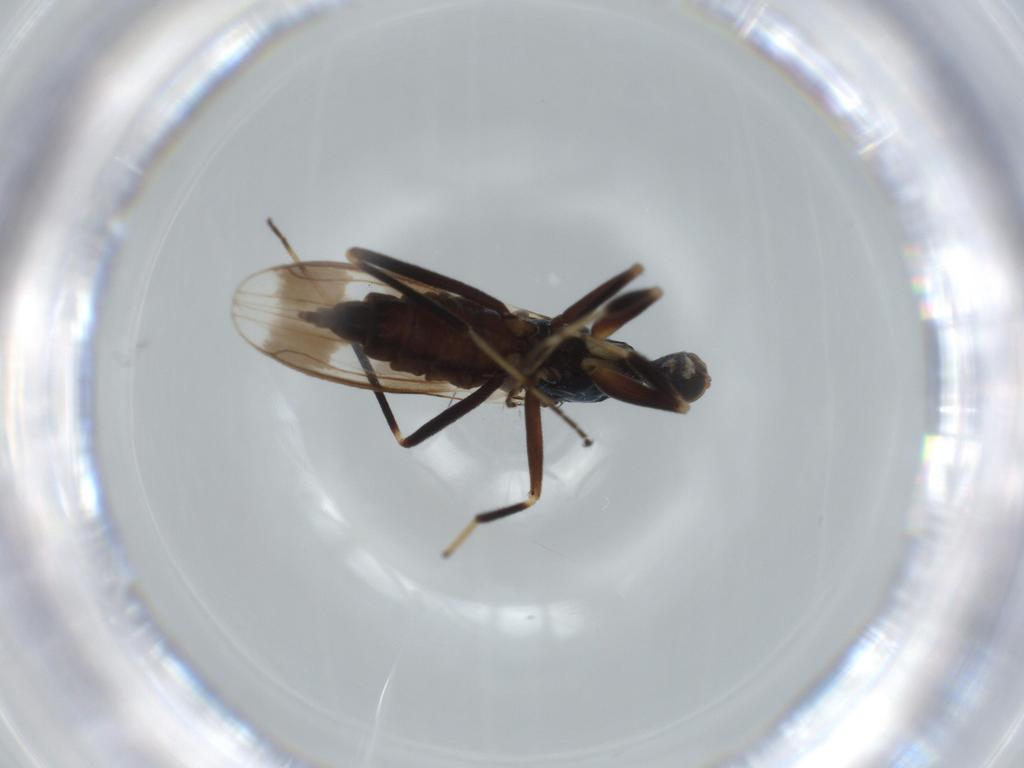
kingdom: Animalia
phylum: Arthropoda
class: Insecta
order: Diptera
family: Hybotidae
